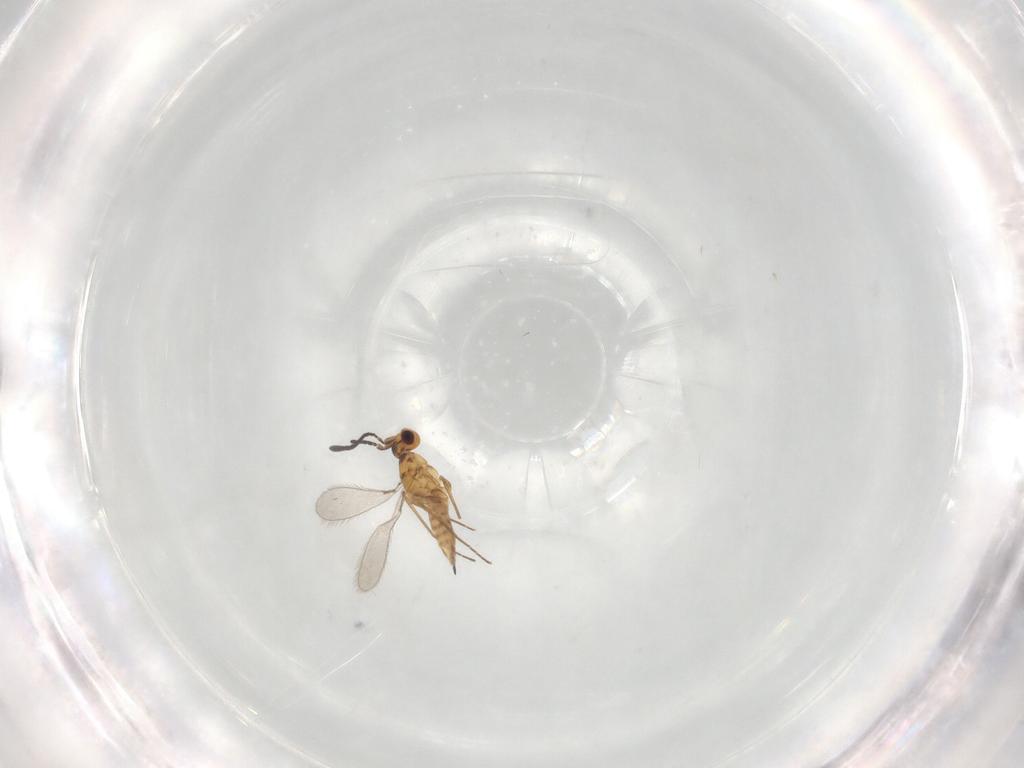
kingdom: Animalia
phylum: Arthropoda
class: Insecta
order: Hymenoptera
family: Mymaridae
